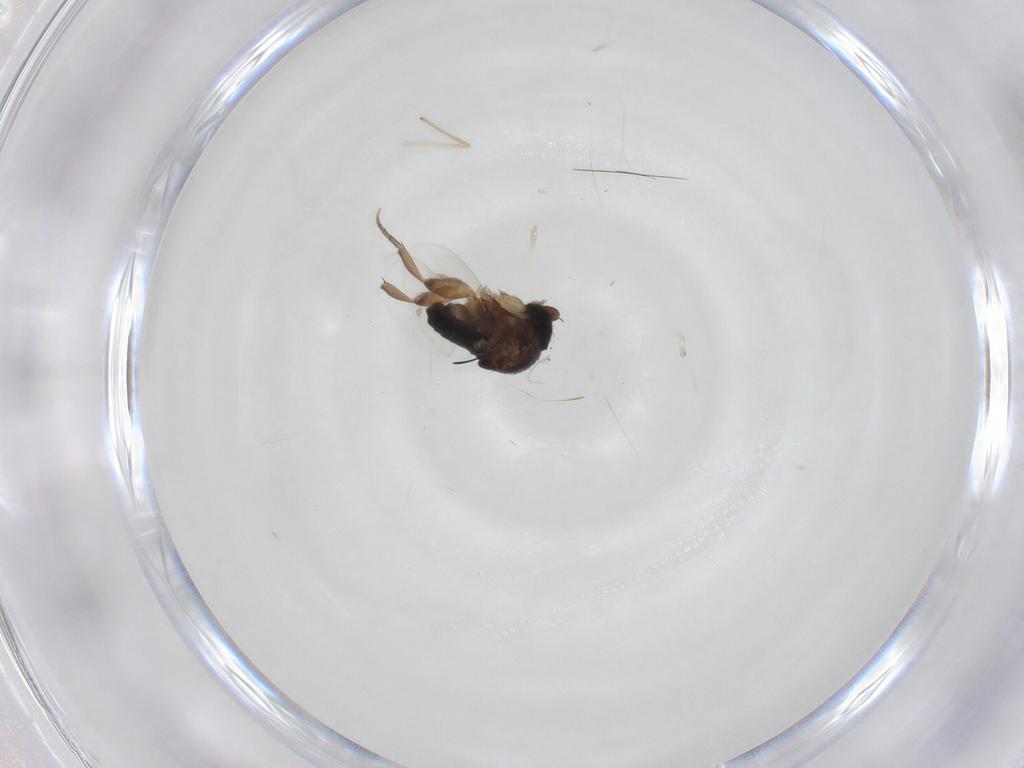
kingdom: Animalia
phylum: Arthropoda
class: Insecta
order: Diptera
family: Phoridae
